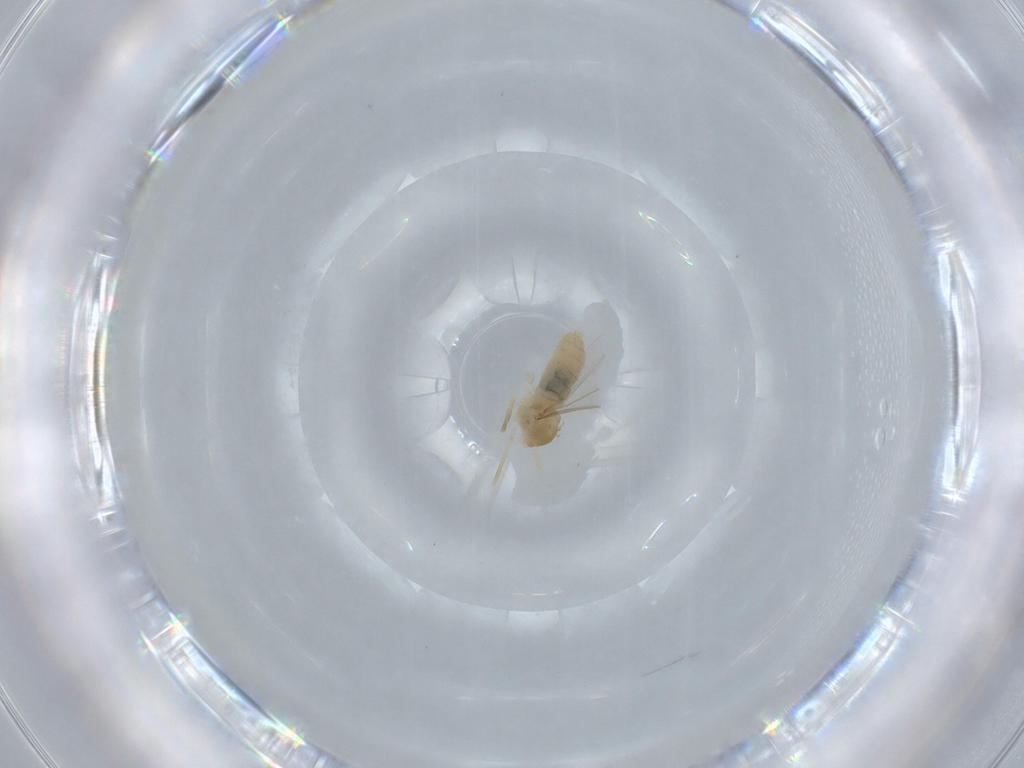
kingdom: Animalia
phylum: Arthropoda
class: Insecta
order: Diptera
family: Cecidomyiidae
